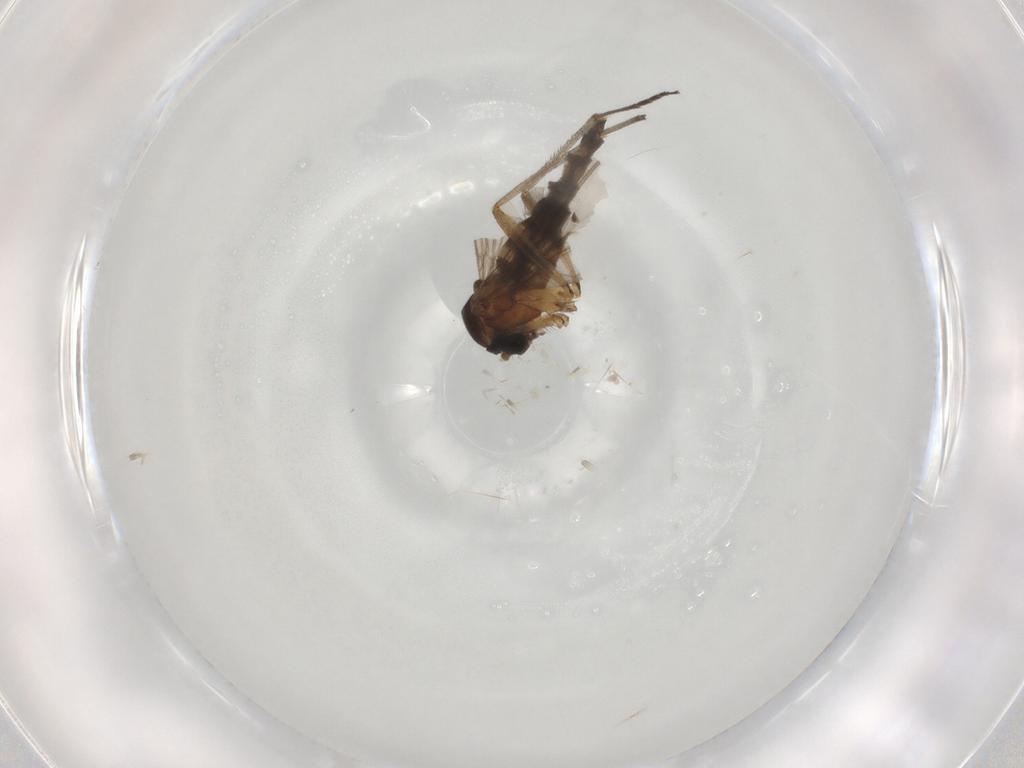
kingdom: Animalia
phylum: Arthropoda
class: Insecta
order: Diptera
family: Sciaridae
